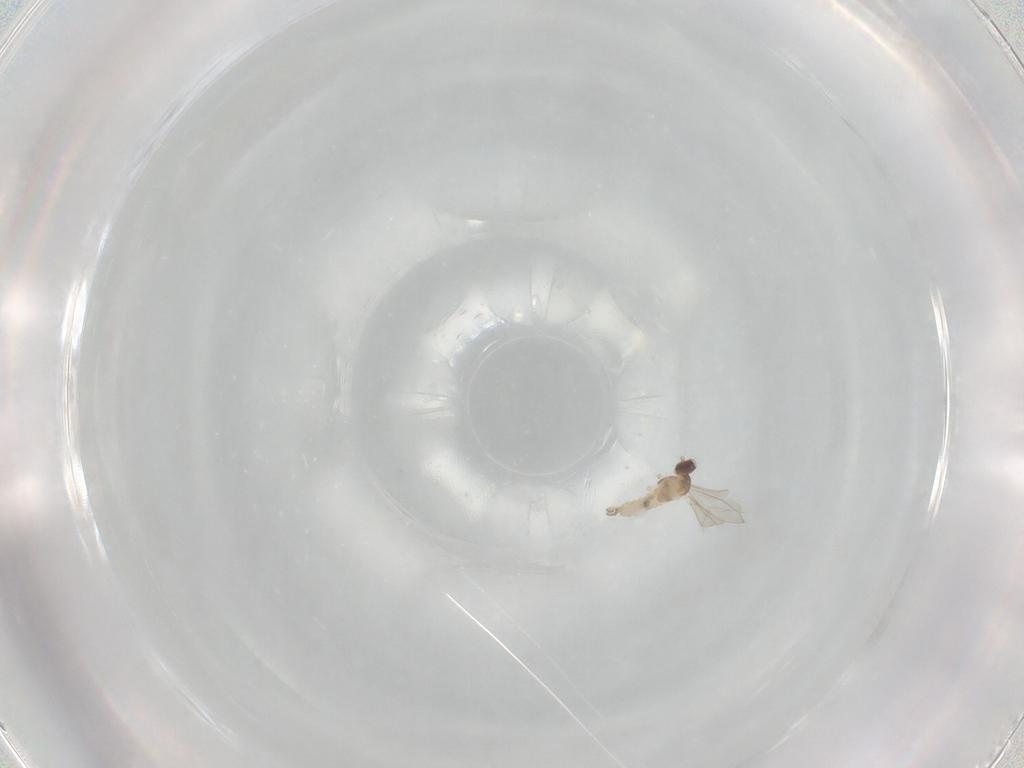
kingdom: Animalia
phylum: Arthropoda
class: Insecta
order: Diptera
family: Cecidomyiidae
